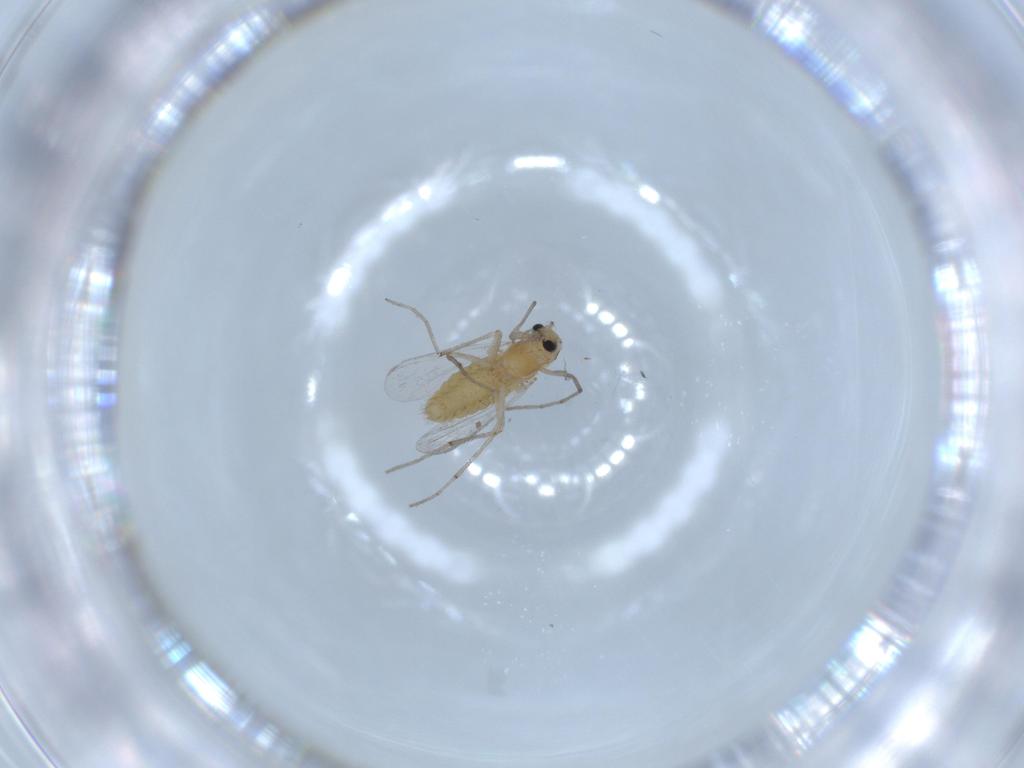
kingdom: Animalia
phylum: Arthropoda
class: Insecta
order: Diptera
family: Chironomidae
